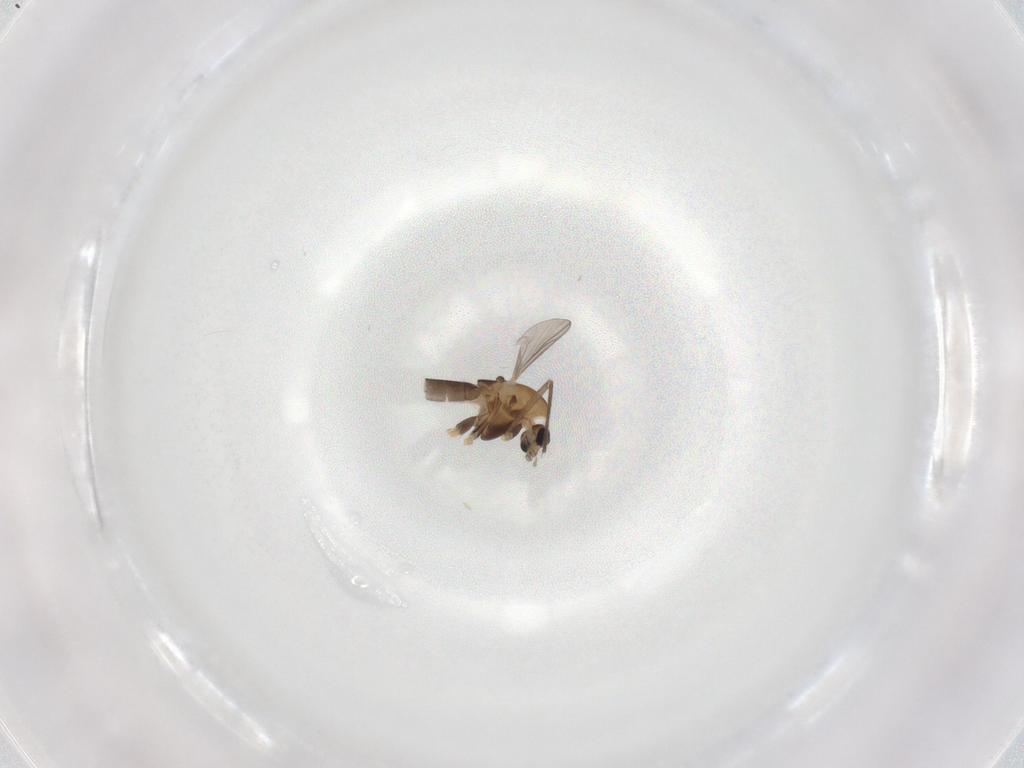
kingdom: Animalia
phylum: Arthropoda
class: Insecta
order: Diptera
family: Chironomidae
